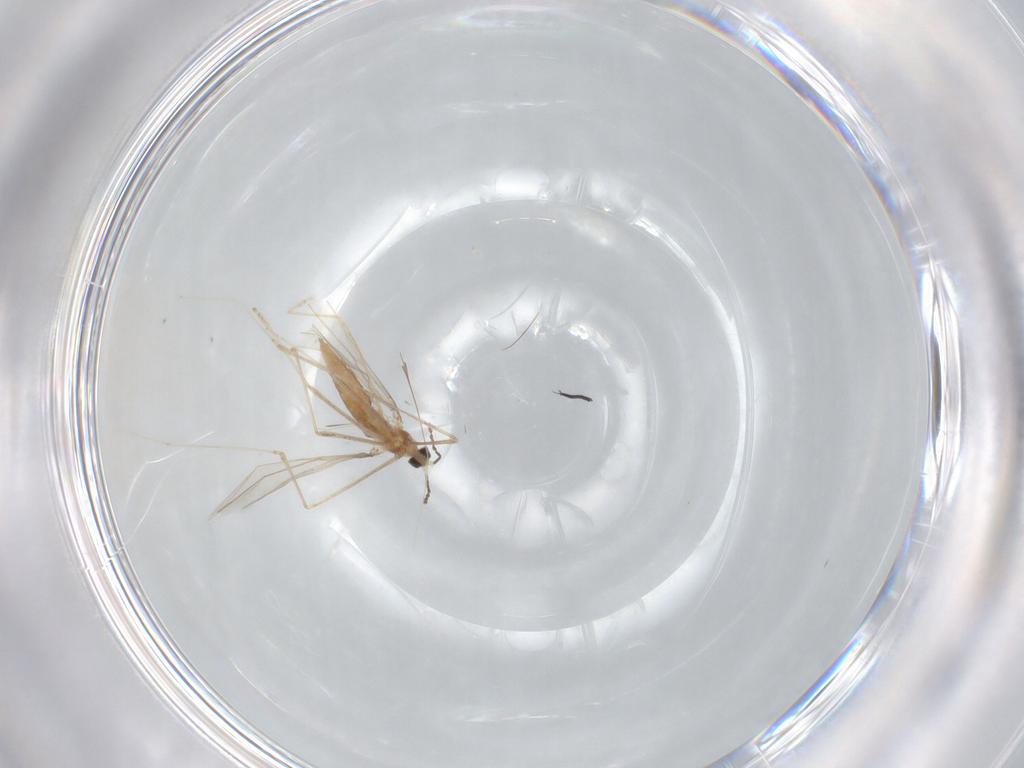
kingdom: Animalia
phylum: Arthropoda
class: Insecta
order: Diptera
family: Cecidomyiidae
